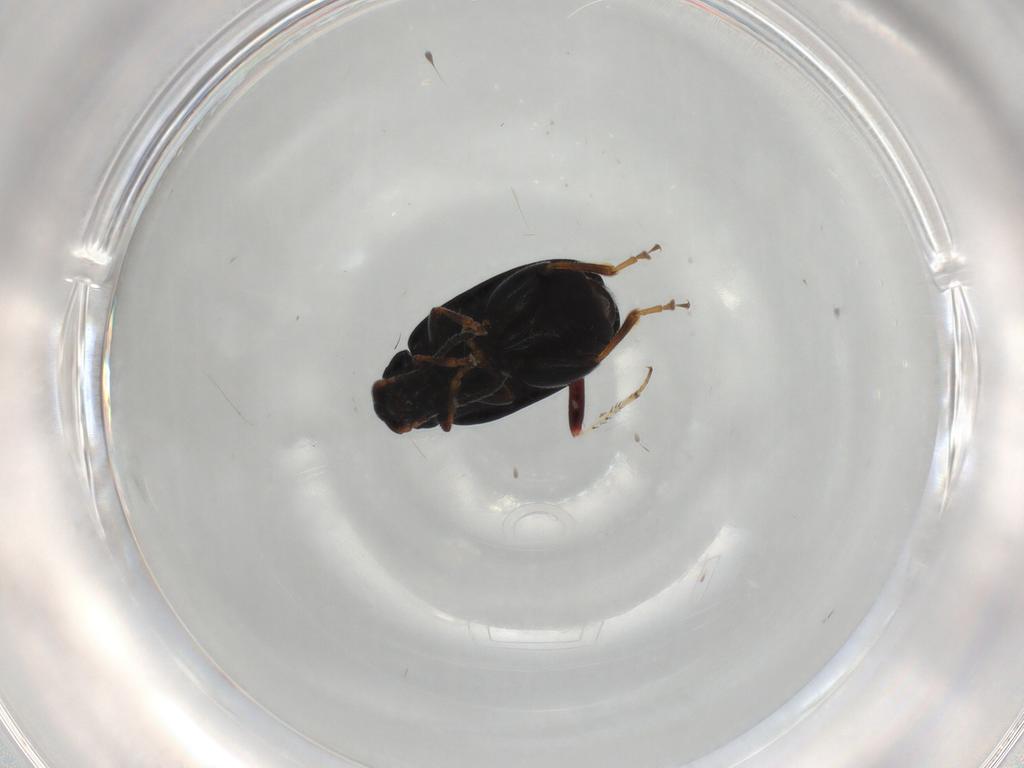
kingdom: Animalia
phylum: Arthropoda
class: Insecta
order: Coleoptera
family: Chrysomelidae
